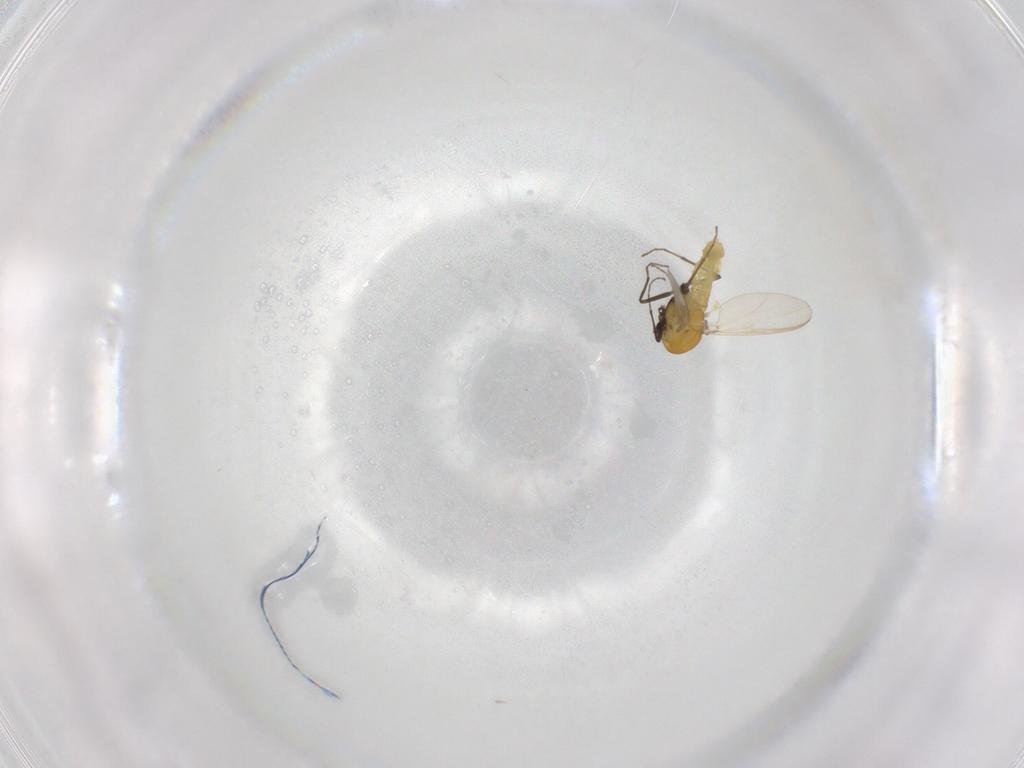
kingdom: Animalia
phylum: Arthropoda
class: Insecta
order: Diptera
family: Chironomidae
